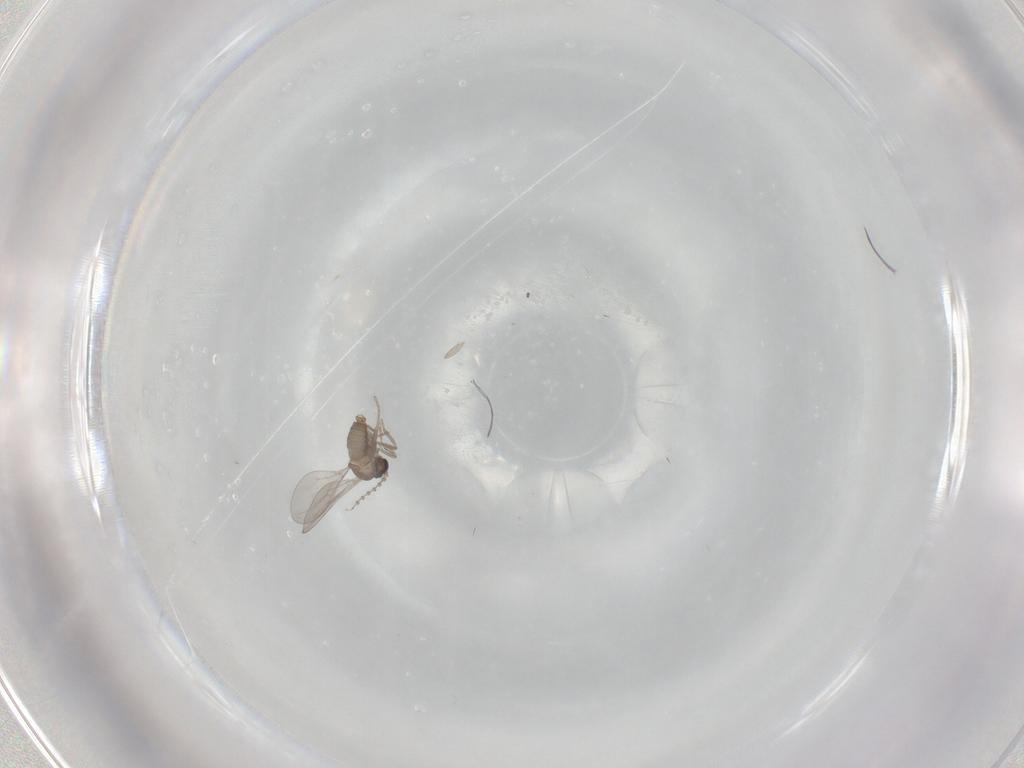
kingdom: Animalia
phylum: Arthropoda
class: Insecta
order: Diptera
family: Cecidomyiidae
